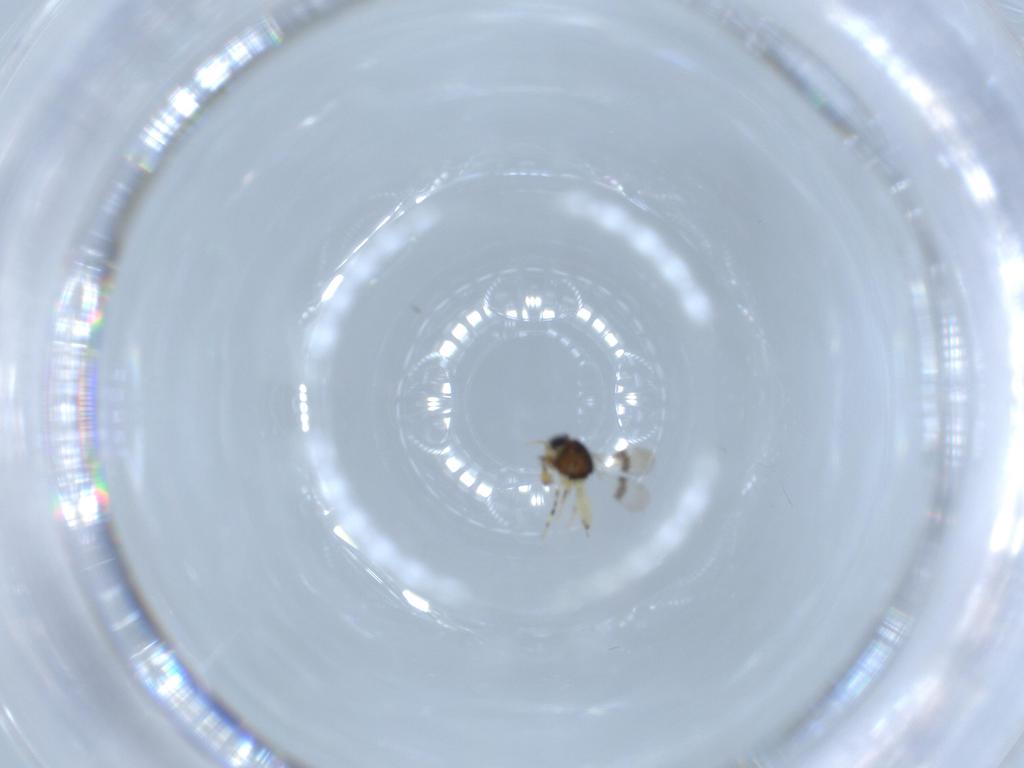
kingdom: Animalia
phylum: Arthropoda
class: Insecta
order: Hymenoptera
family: Scelionidae
